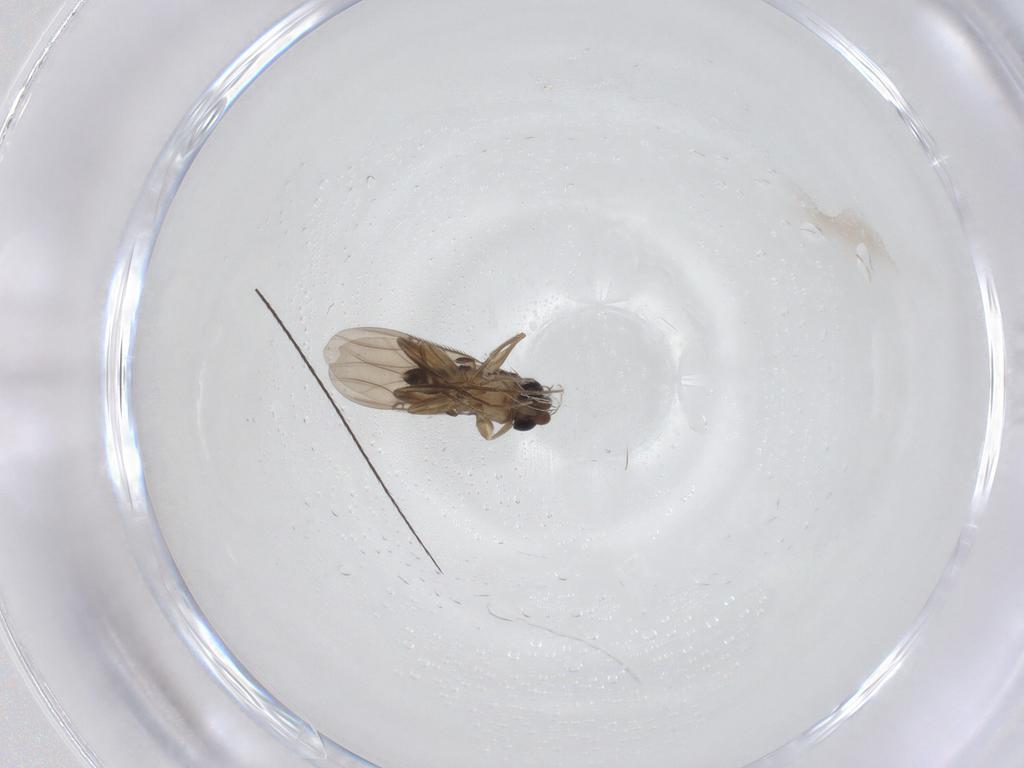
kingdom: Animalia
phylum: Arthropoda
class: Insecta
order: Diptera
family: Phoridae
